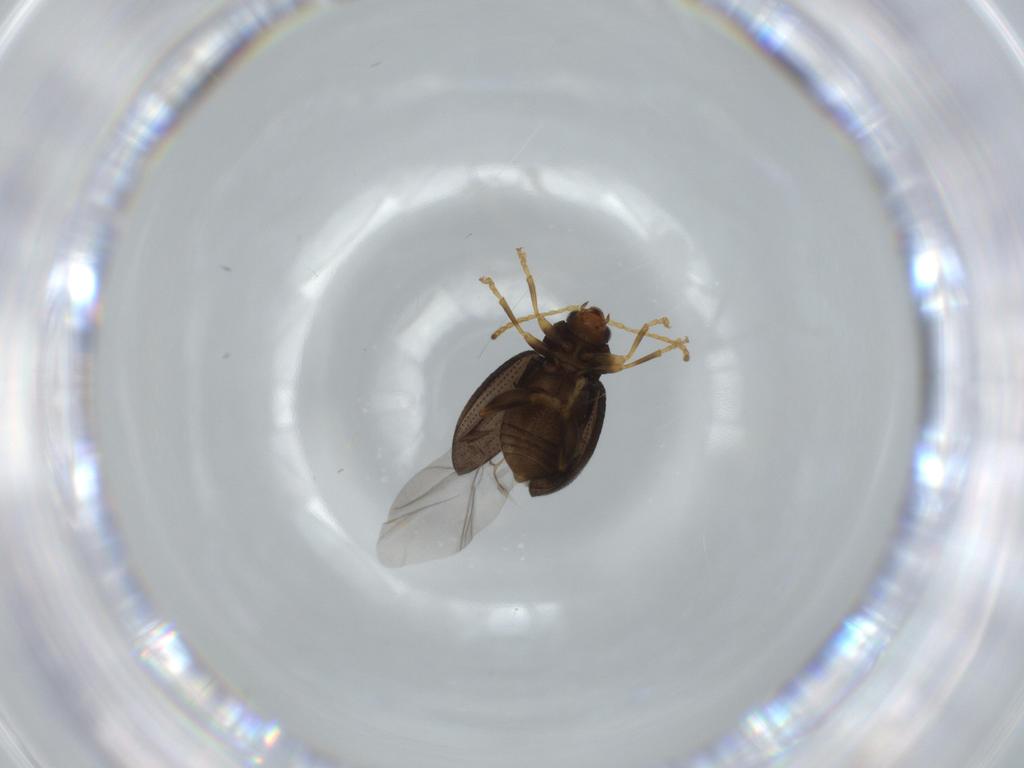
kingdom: Animalia
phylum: Arthropoda
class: Insecta
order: Coleoptera
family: Chrysomelidae
